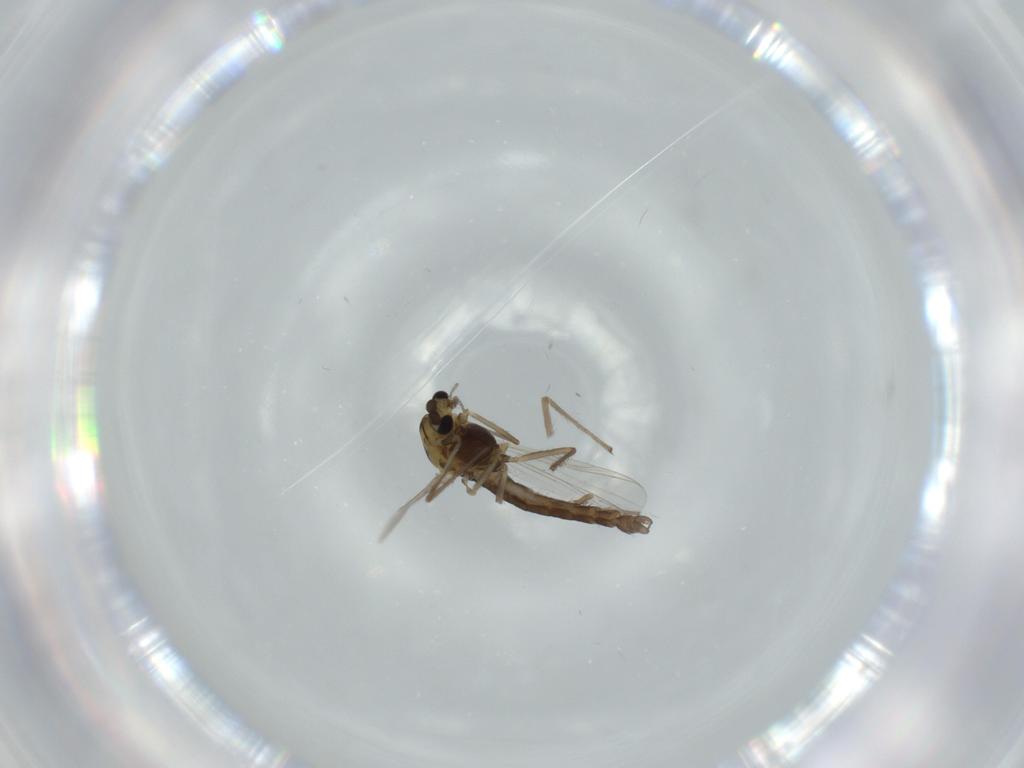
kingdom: Animalia
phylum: Arthropoda
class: Insecta
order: Diptera
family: Chironomidae
